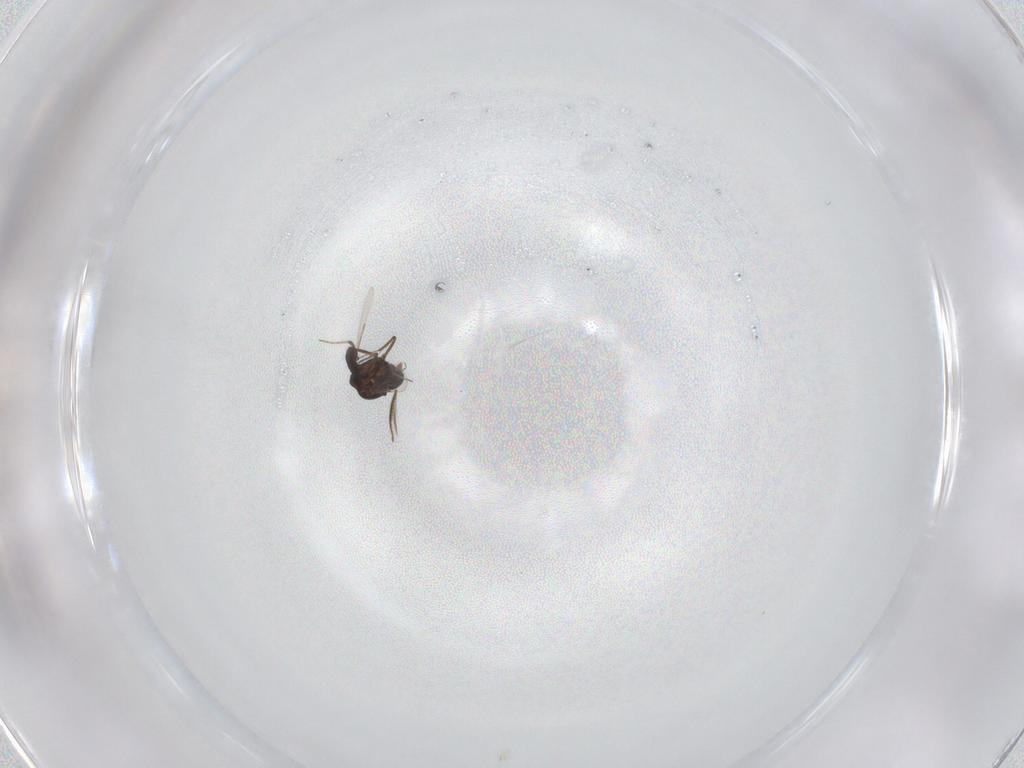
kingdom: Animalia
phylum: Arthropoda
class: Insecta
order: Diptera
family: Ceratopogonidae
